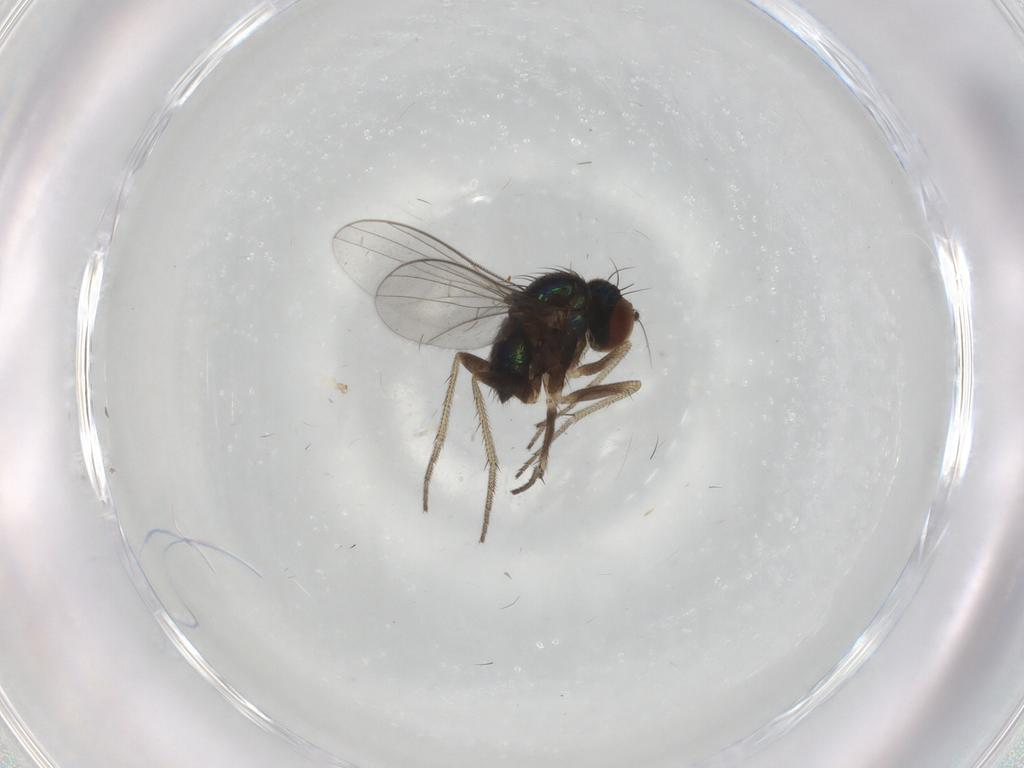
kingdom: Animalia
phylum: Arthropoda
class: Insecta
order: Diptera
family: Dolichopodidae
